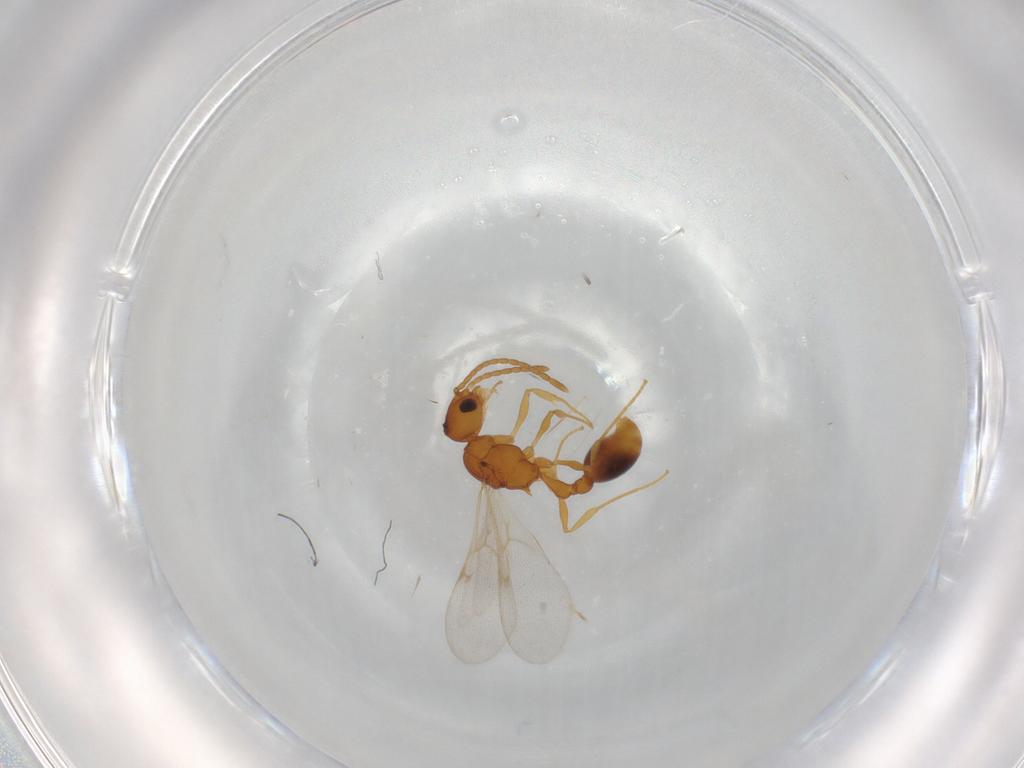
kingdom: Animalia
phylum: Arthropoda
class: Insecta
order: Hymenoptera
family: Formicidae
